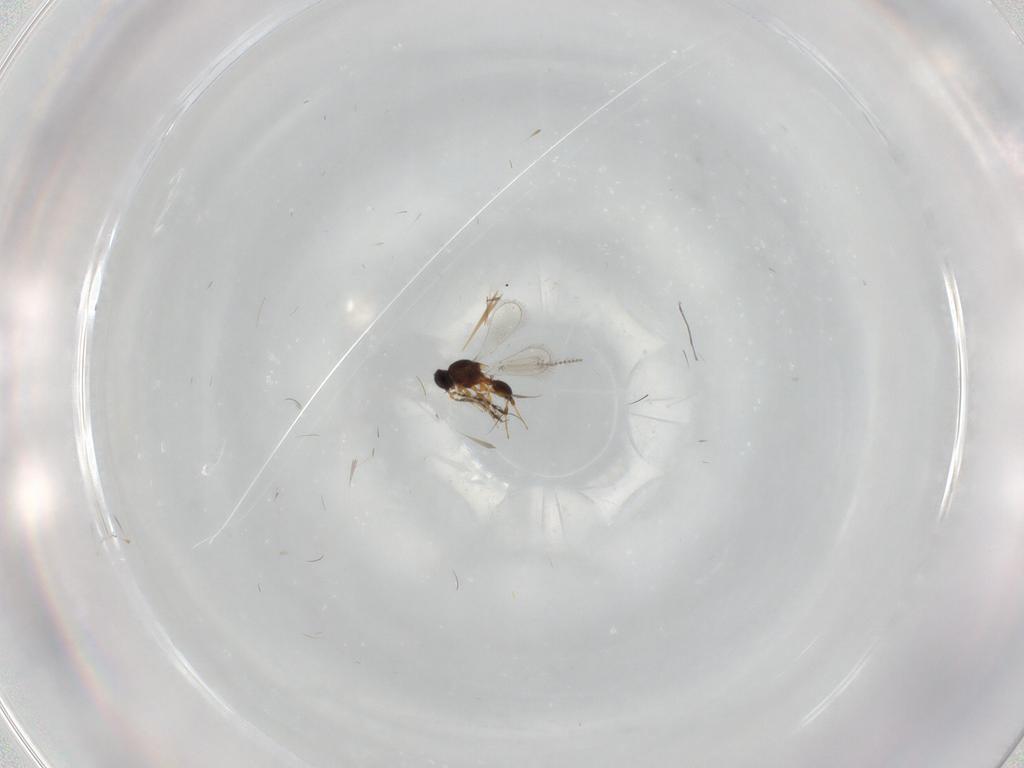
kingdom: Animalia
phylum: Arthropoda
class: Insecta
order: Hymenoptera
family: Platygastridae
